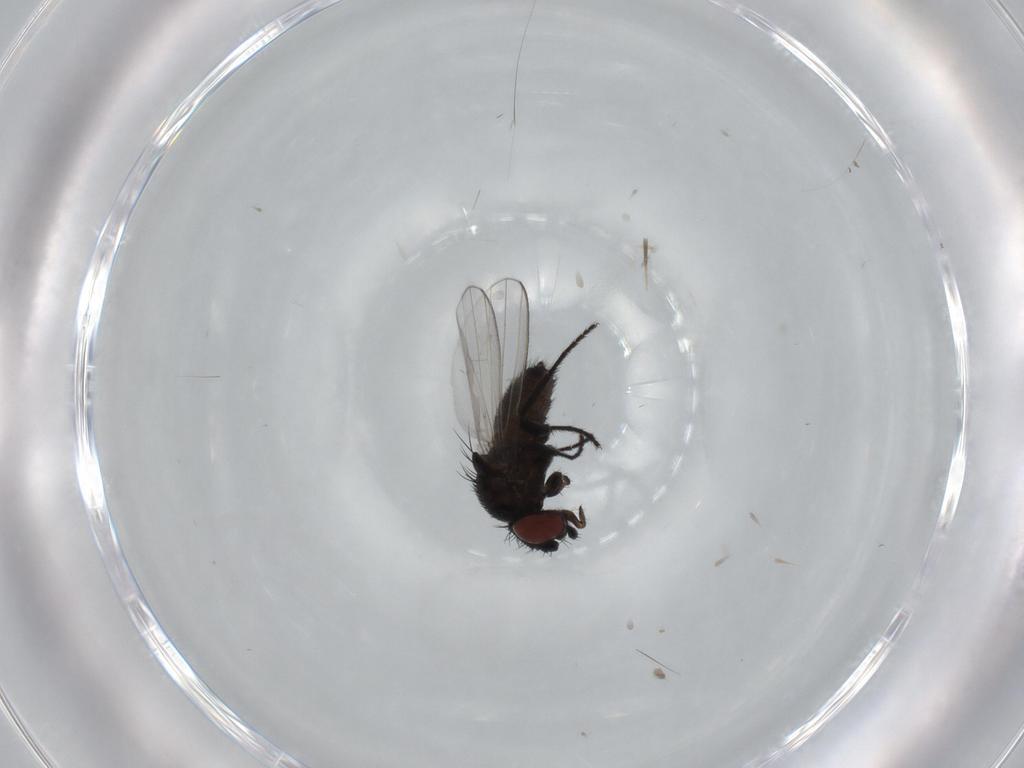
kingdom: Animalia
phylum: Arthropoda
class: Insecta
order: Diptera
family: Milichiidae
